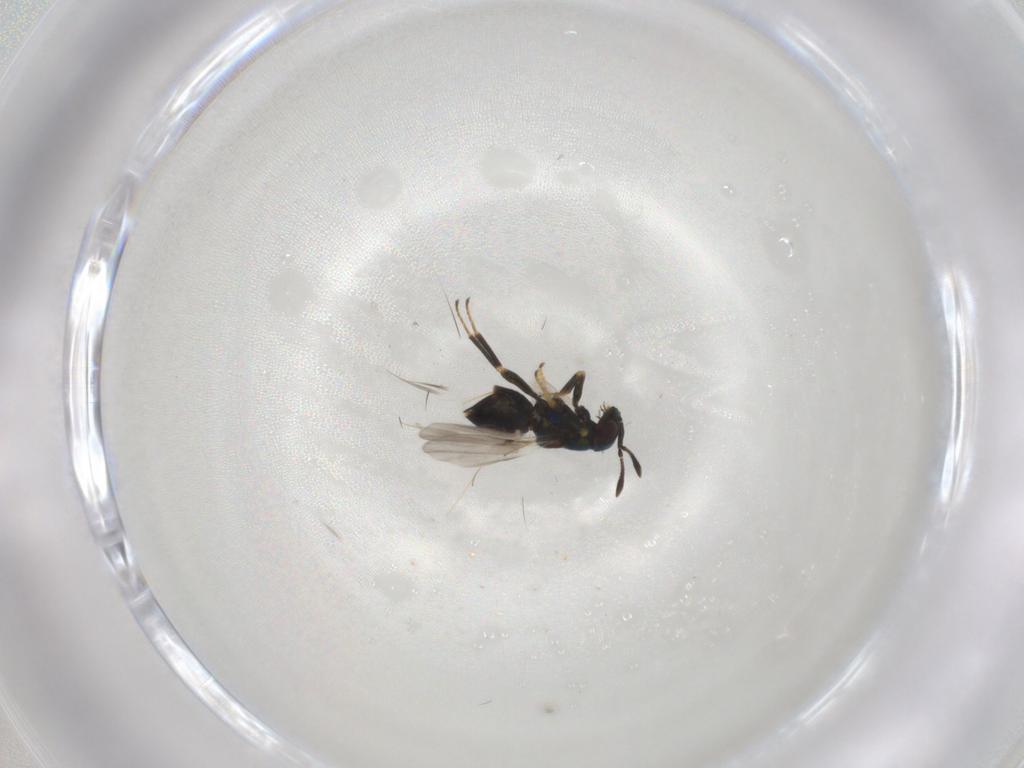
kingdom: Animalia
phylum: Arthropoda
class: Insecta
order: Hymenoptera
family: Encyrtidae
